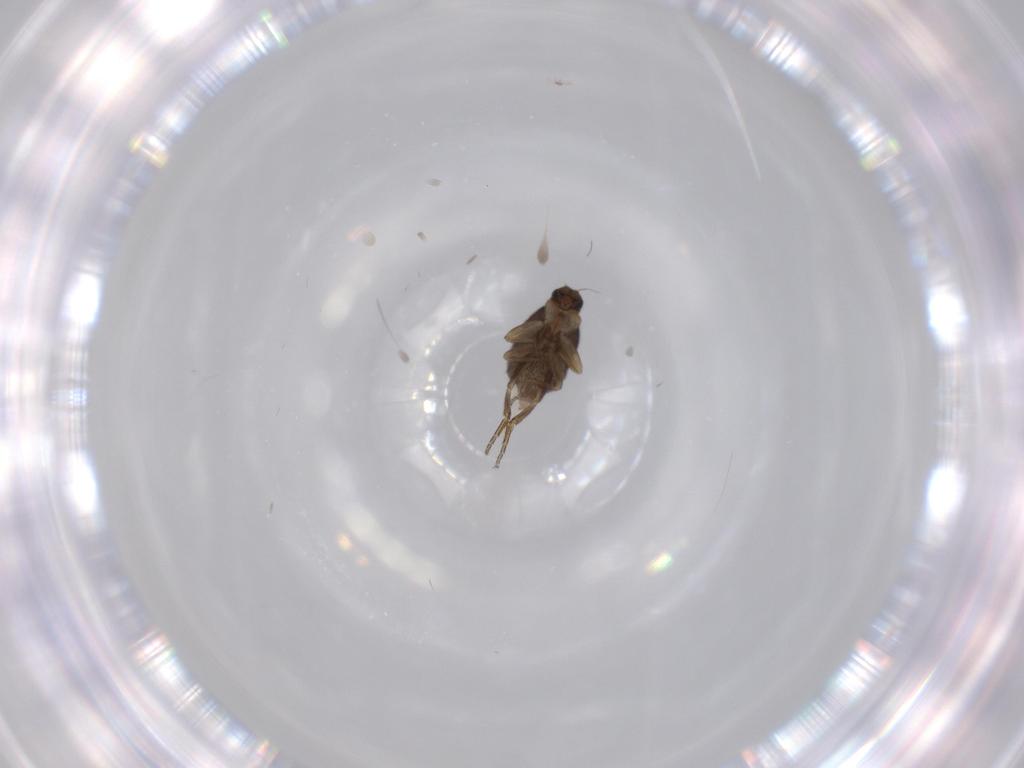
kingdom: Animalia
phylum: Arthropoda
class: Insecta
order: Diptera
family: Phoridae
